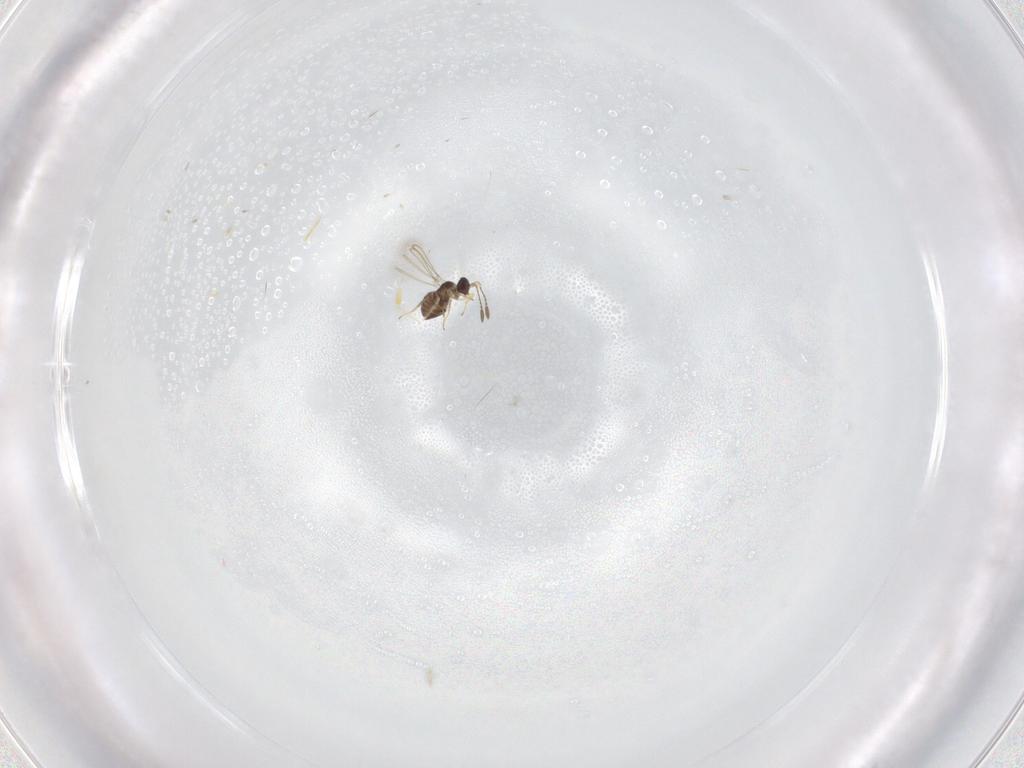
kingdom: Animalia
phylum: Arthropoda
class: Insecta
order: Hymenoptera
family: Mymaridae
